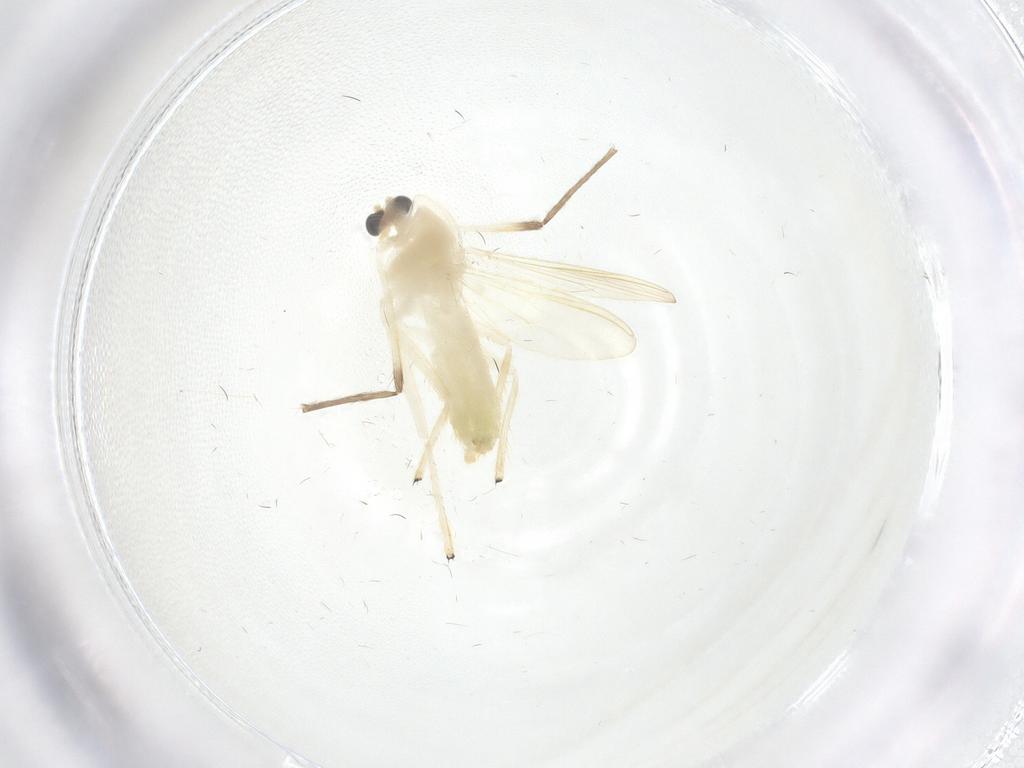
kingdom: Animalia
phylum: Arthropoda
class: Insecta
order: Diptera
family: Chironomidae
